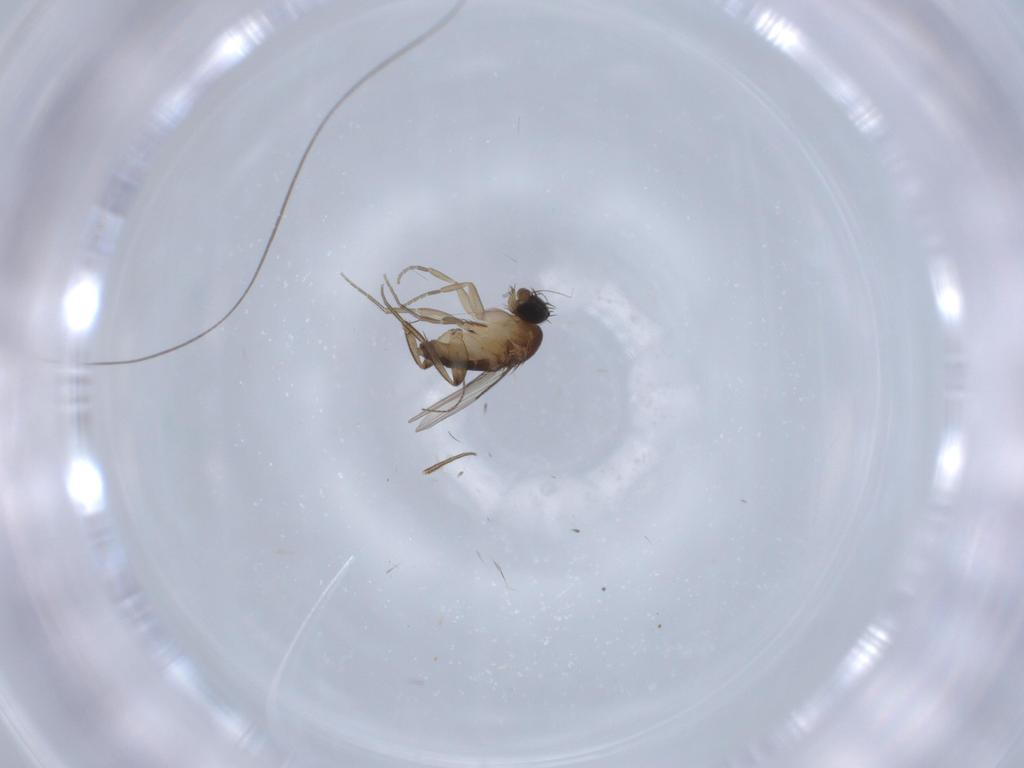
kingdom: Animalia
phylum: Arthropoda
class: Insecta
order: Diptera
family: Phoridae
